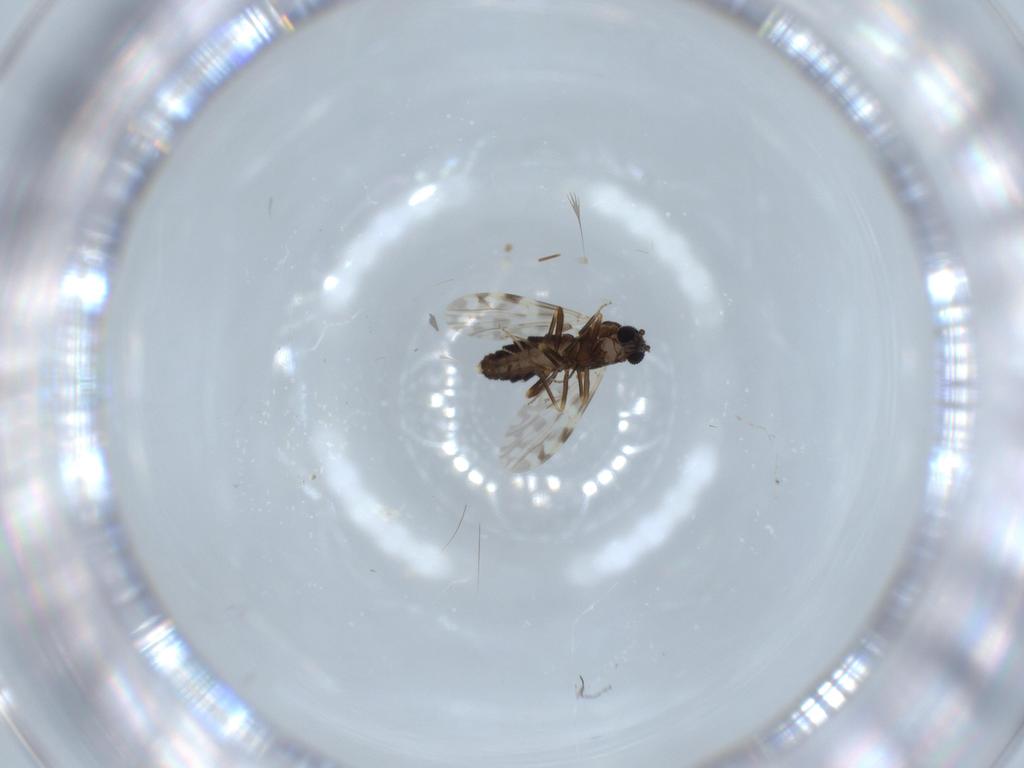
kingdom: Animalia
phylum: Arthropoda
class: Insecta
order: Diptera
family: Ceratopogonidae
